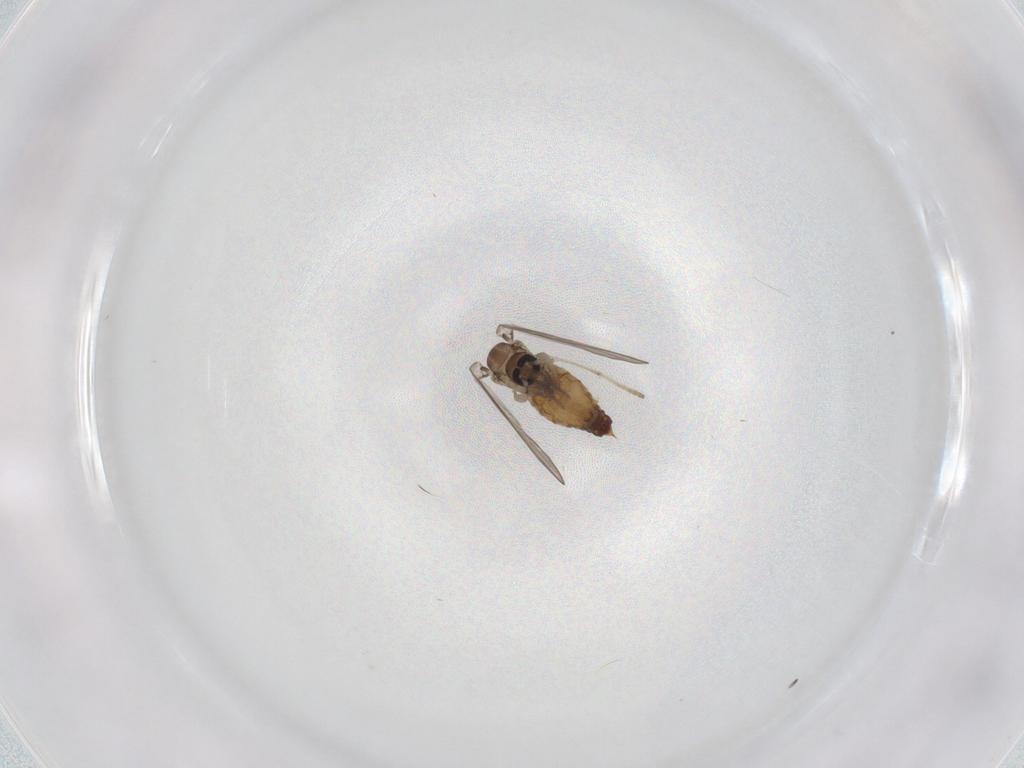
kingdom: Animalia
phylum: Arthropoda
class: Insecta
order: Diptera
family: Psychodidae
